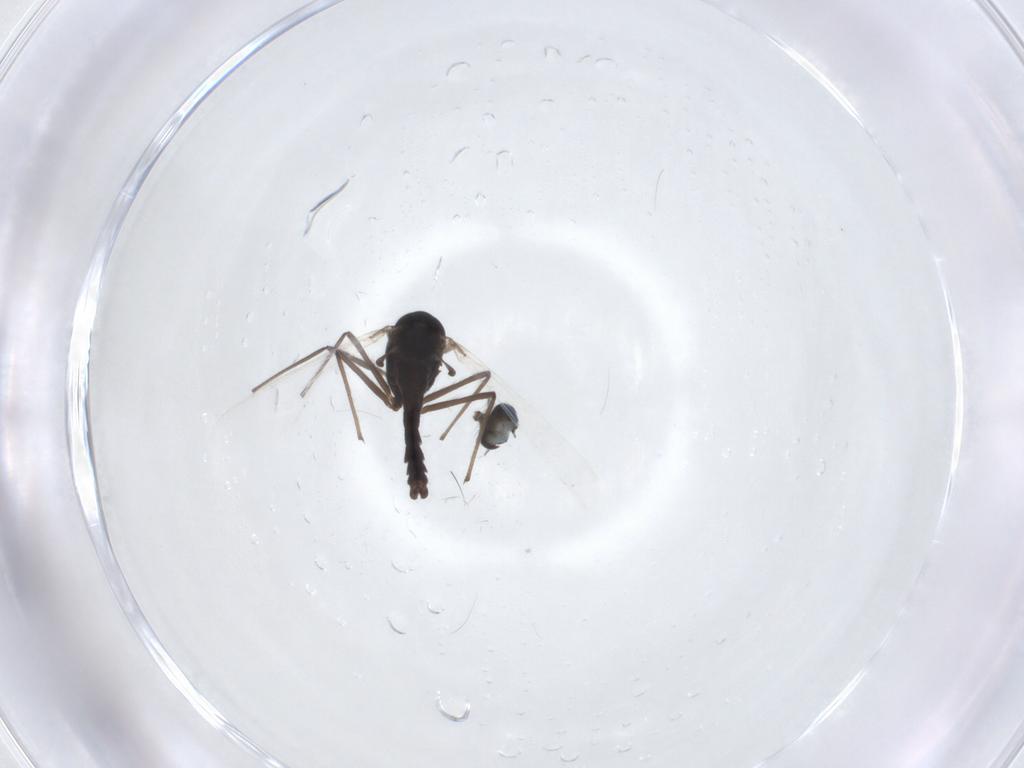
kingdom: Animalia
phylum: Arthropoda
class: Insecta
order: Diptera
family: Chironomidae
